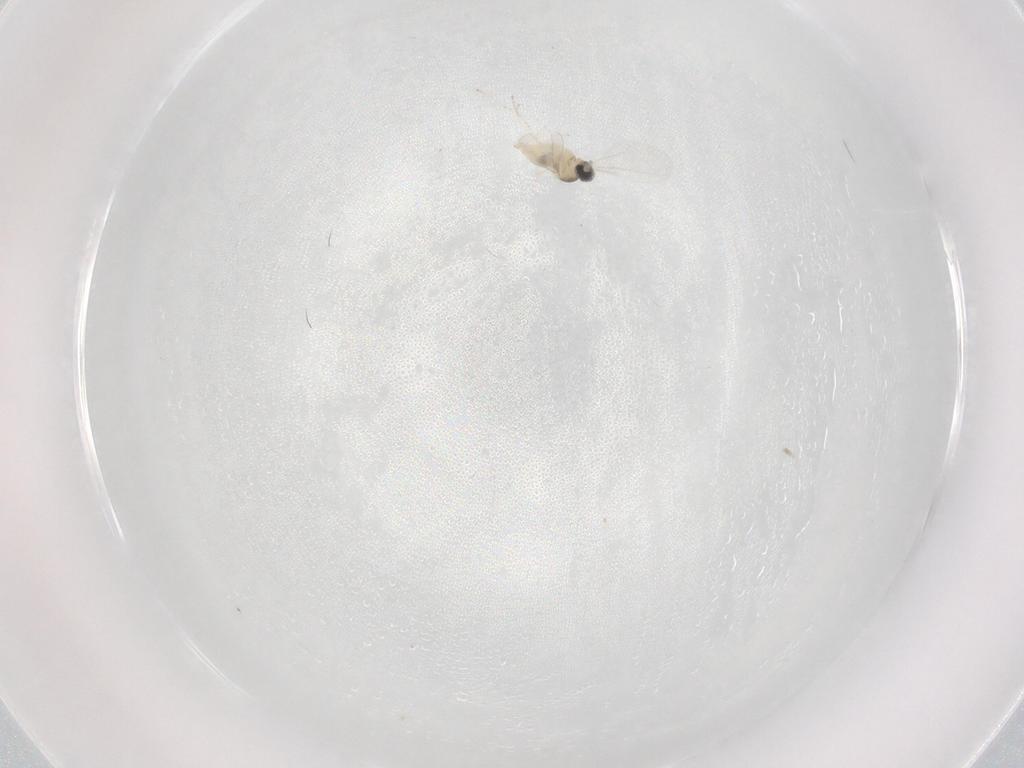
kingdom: Animalia
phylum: Arthropoda
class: Insecta
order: Diptera
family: Cecidomyiidae
